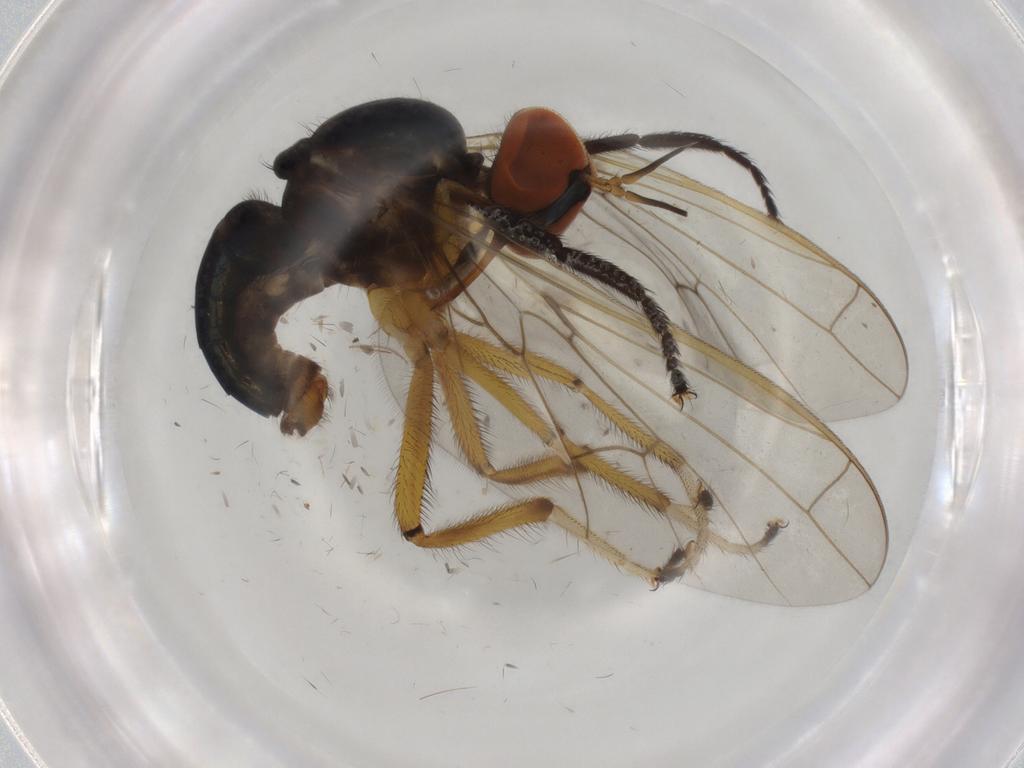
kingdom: Animalia
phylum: Arthropoda
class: Insecta
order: Diptera
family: Empididae
